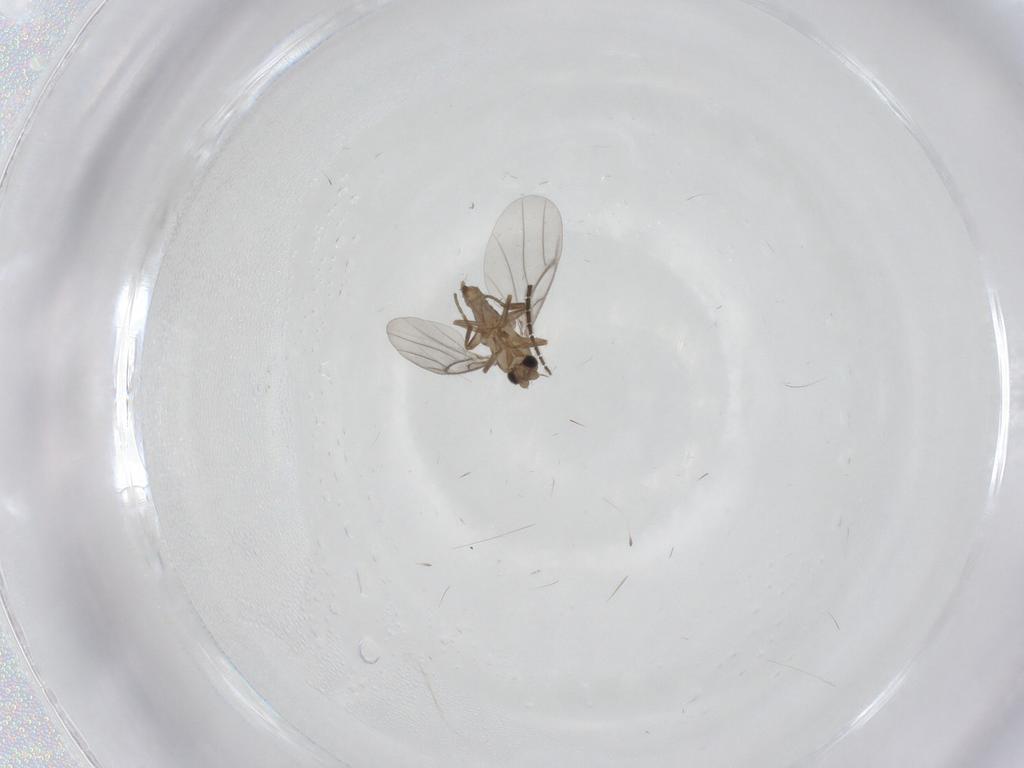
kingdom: Animalia
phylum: Arthropoda
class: Insecta
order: Diptera
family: Sciaridae
